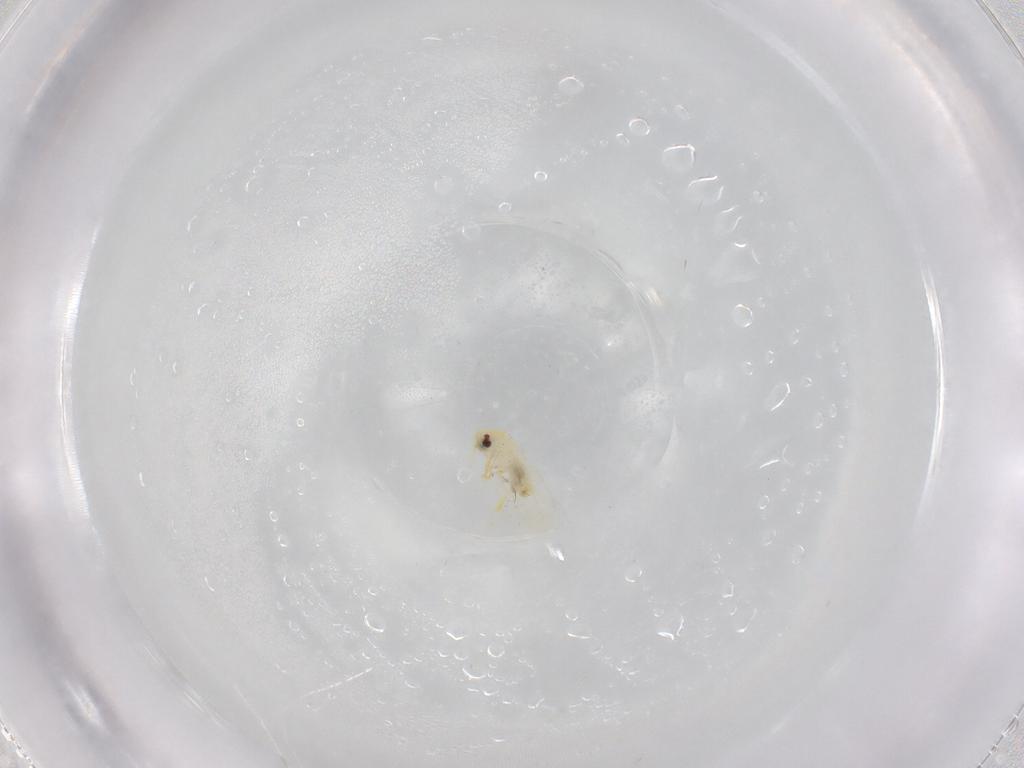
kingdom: Animalia
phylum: Arthropoda
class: Insecta
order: Hemiptera
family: Aleyrodidae
